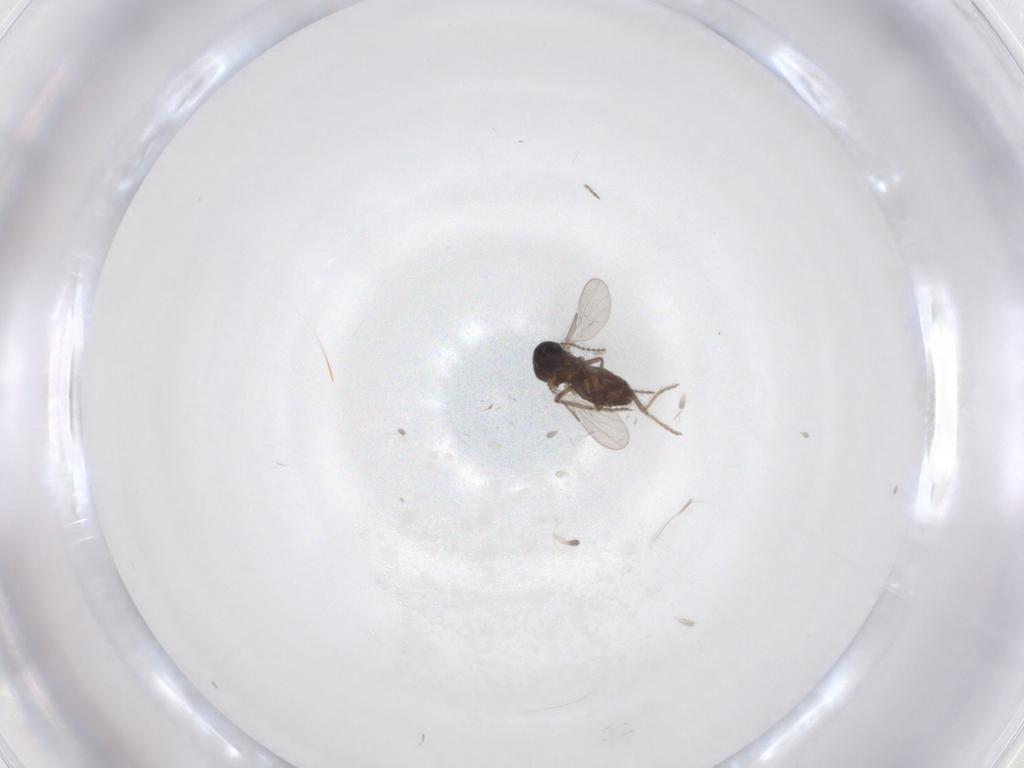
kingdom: Animalia
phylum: Arthropoda
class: Insecta
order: Diptera
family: Ceratopogonidae
